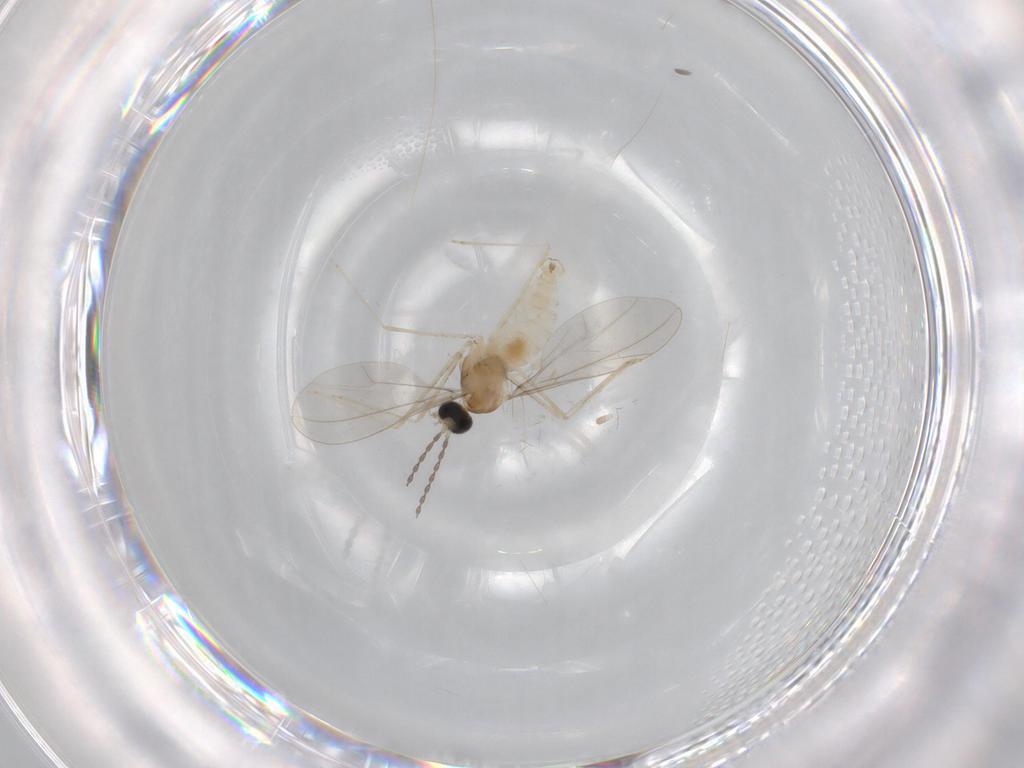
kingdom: Animalia
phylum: Arthropoda
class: Insecta
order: Diptera
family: Cecidomyiidae
